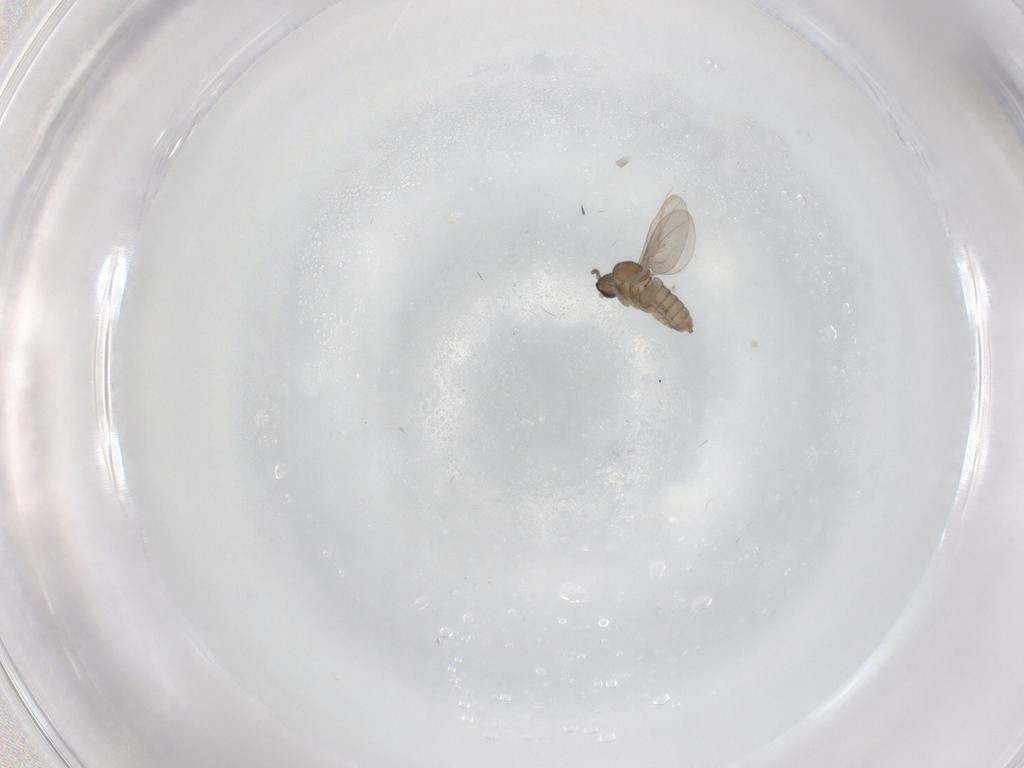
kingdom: Animalia
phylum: Arthropoda
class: Insecta
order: Diptera
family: Cecidomyiidae
